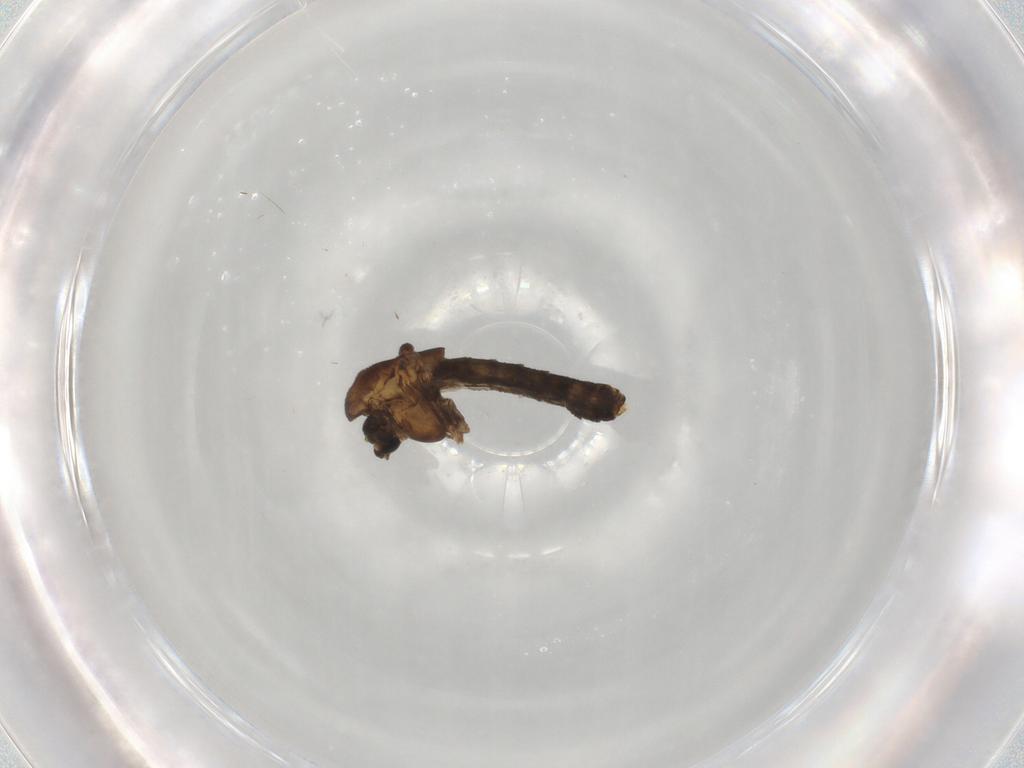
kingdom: Animalia
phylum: Arthropoda
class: Insecta
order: Diptera
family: Chironomidae
